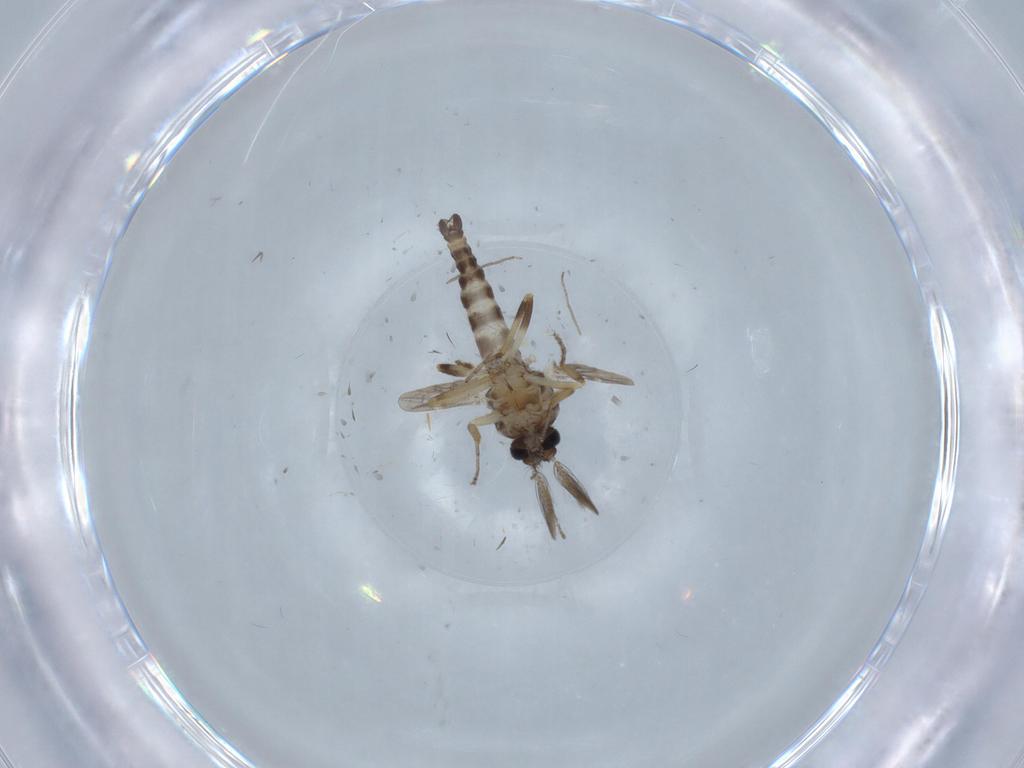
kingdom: Animalia
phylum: Arthropoda
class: Insecta
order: Diptera
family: Ceratopogonidae
